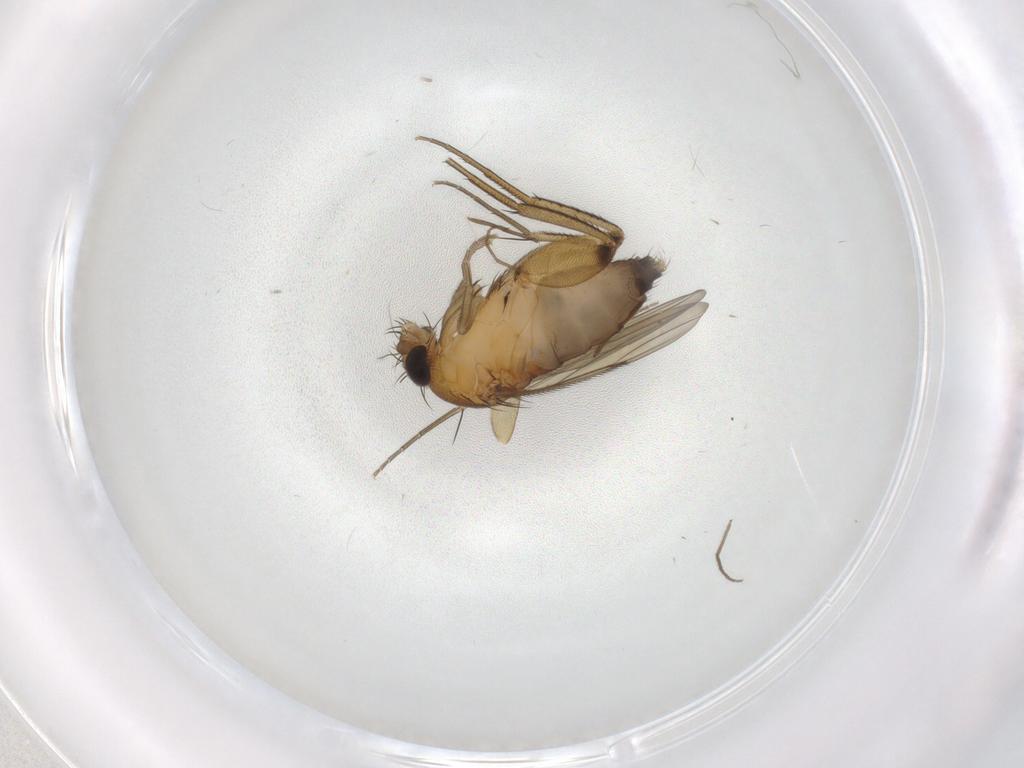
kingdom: Animalia
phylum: Arthropoda
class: Insecta
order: Diptera
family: Phoridae
